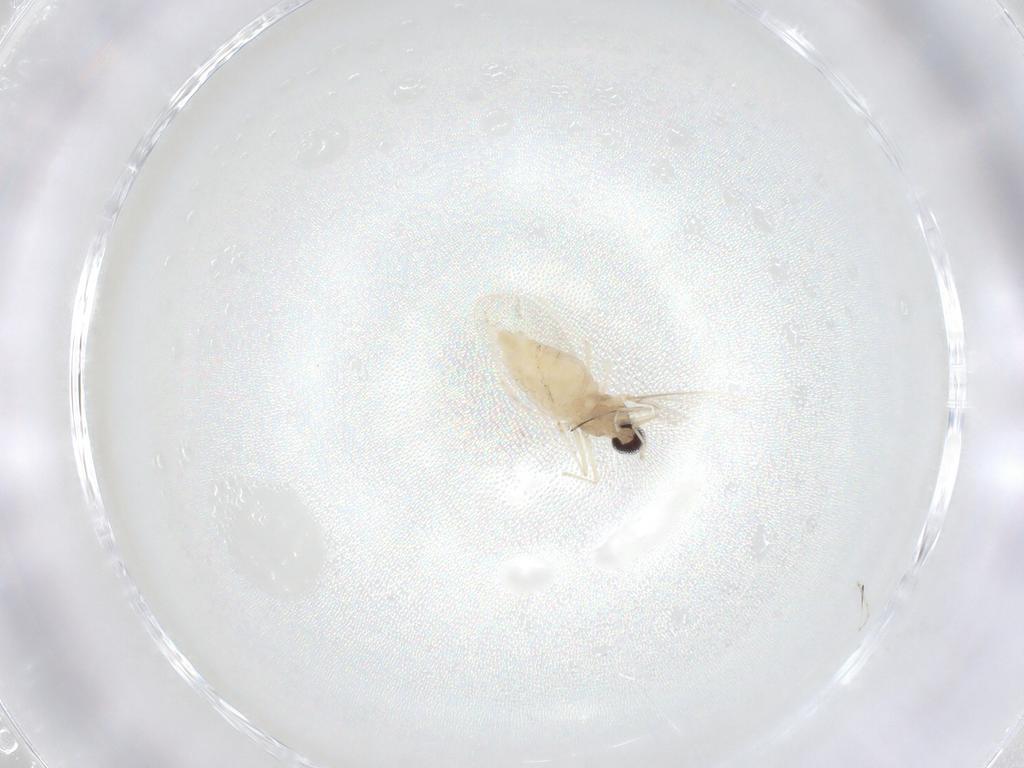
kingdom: Animalia
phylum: Arthropoda
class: Insecta
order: Diptera
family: Cecidomyiidae
